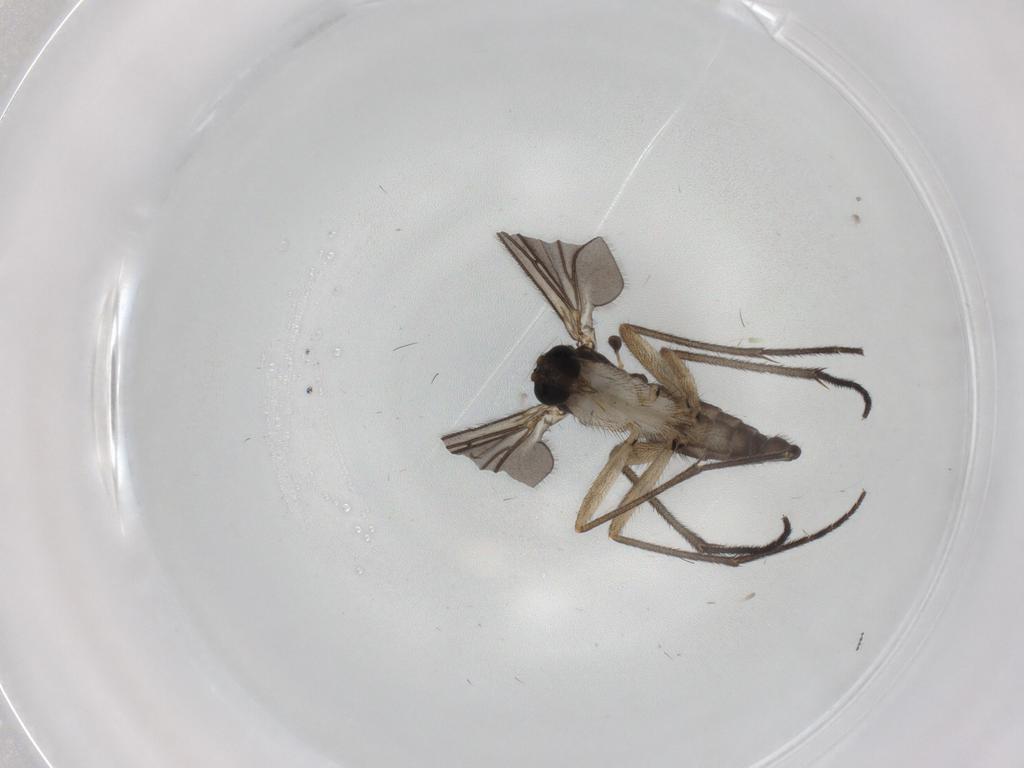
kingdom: Animalia
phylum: Arthropoda
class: Insecta
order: Diptera
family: Sciaridae
